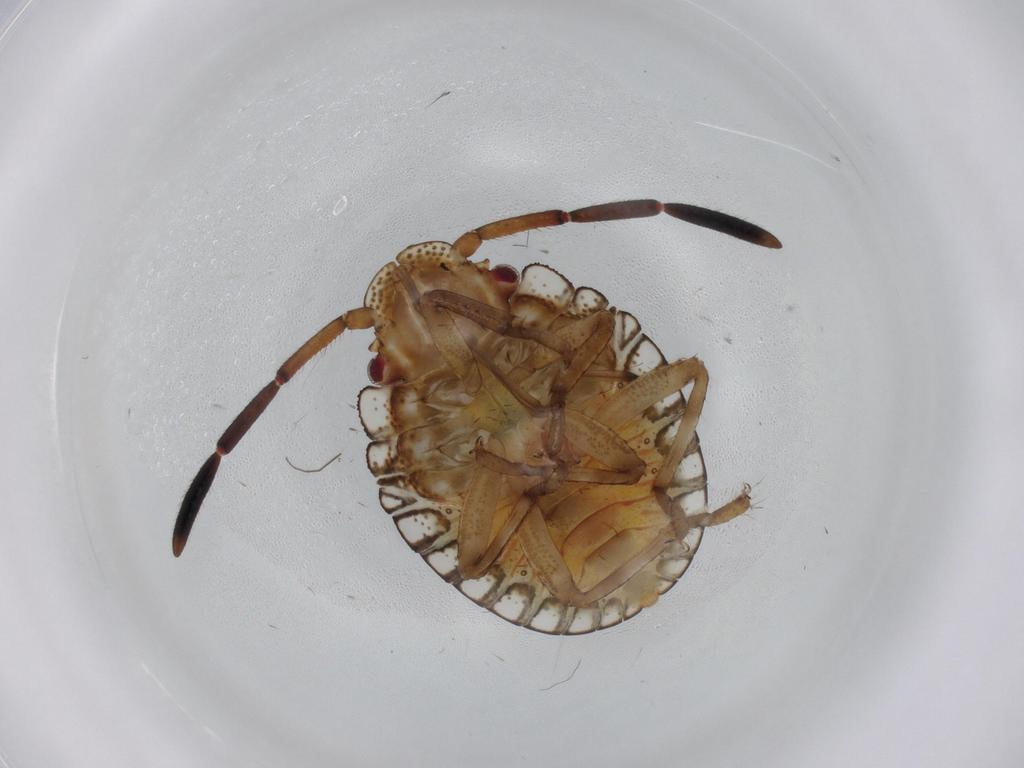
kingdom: Animalia
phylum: Arthropoda
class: Insecta
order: Hemiptera
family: Pentatomidae
